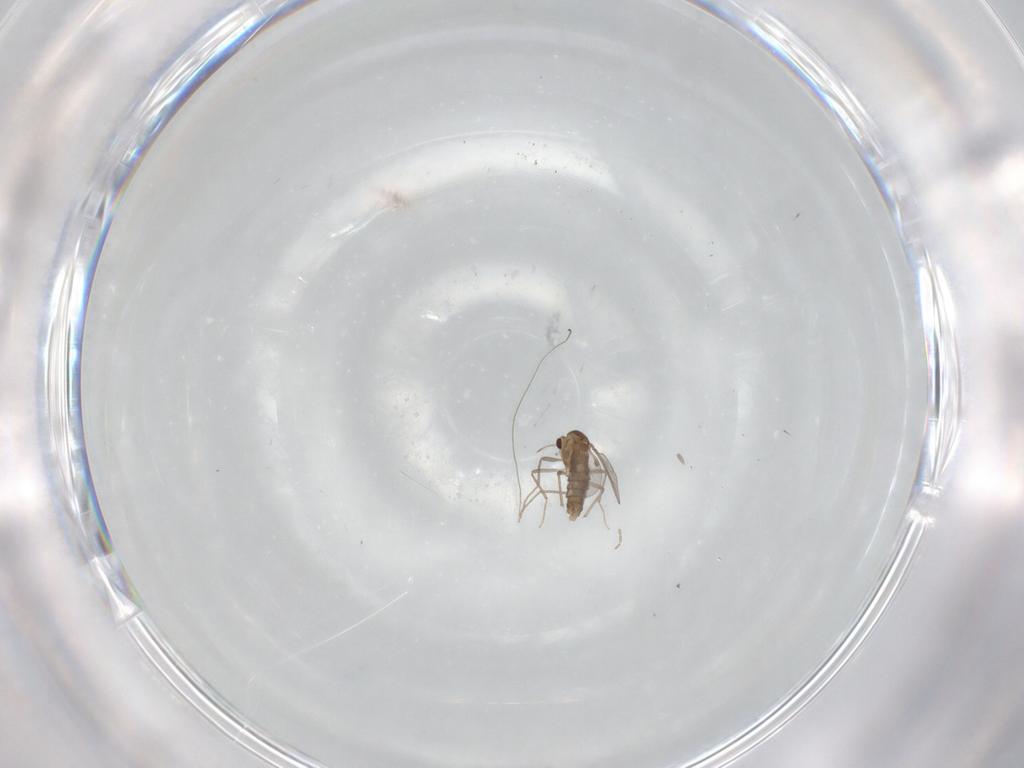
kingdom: Animalia
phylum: Arthropoda
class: Insecta
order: Diptera
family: Chironomidae
